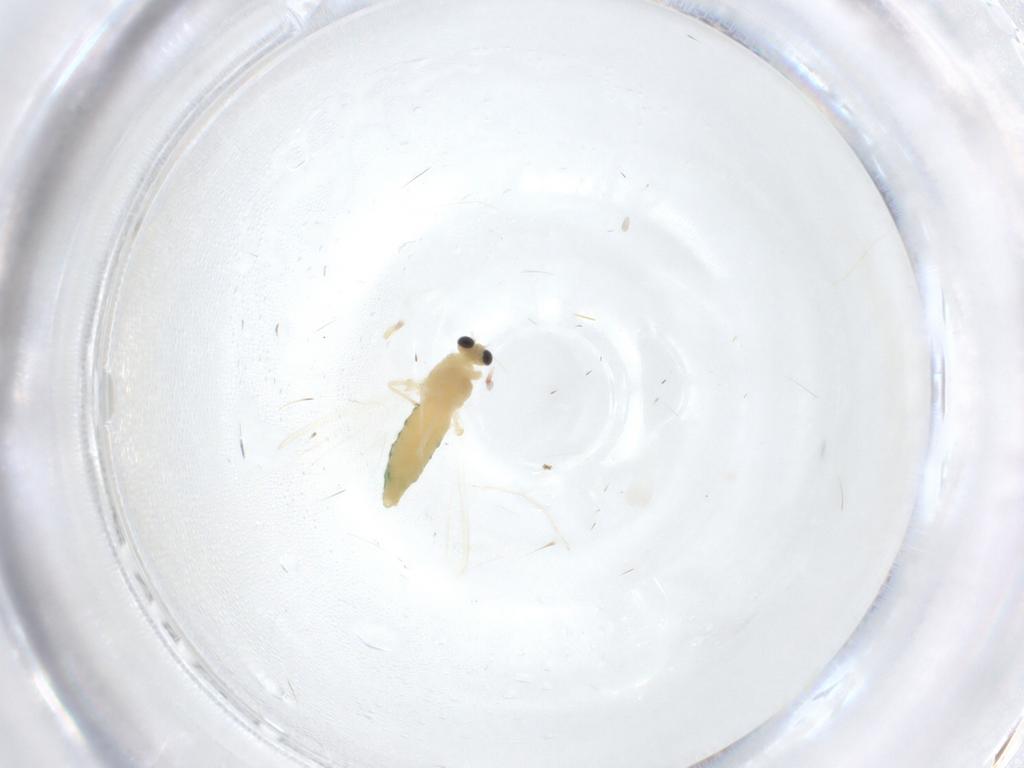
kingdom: Animalia
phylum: Arthropoda
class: Insecta
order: Diptera
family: Chironomidae
